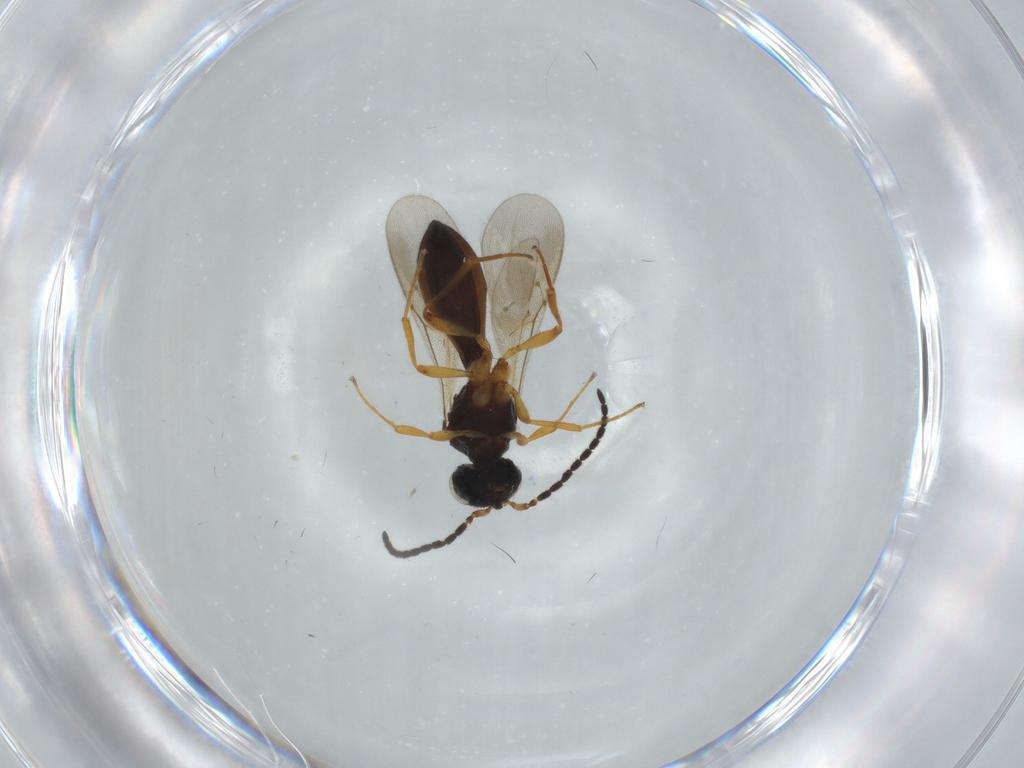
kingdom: Animalia
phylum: Arthropoda
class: Insecta
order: Hymenoptera
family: Scelionidae
